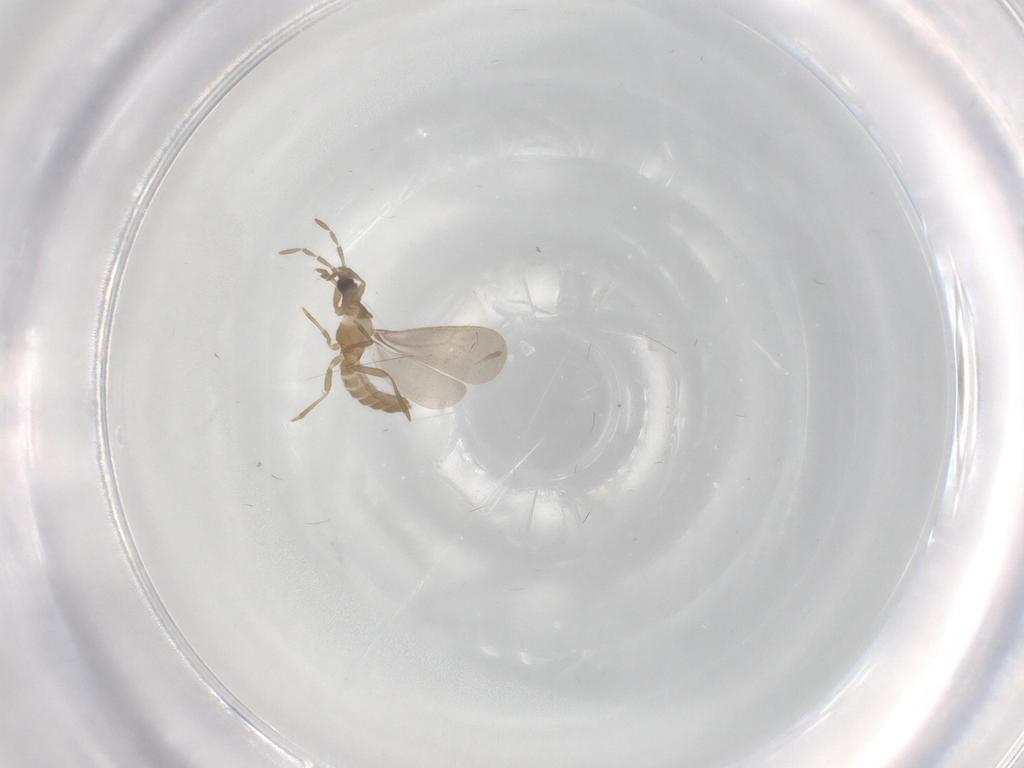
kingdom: Animalia
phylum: Arthropoda
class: Insecta
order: Hemiptera
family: Enicocephalidae
